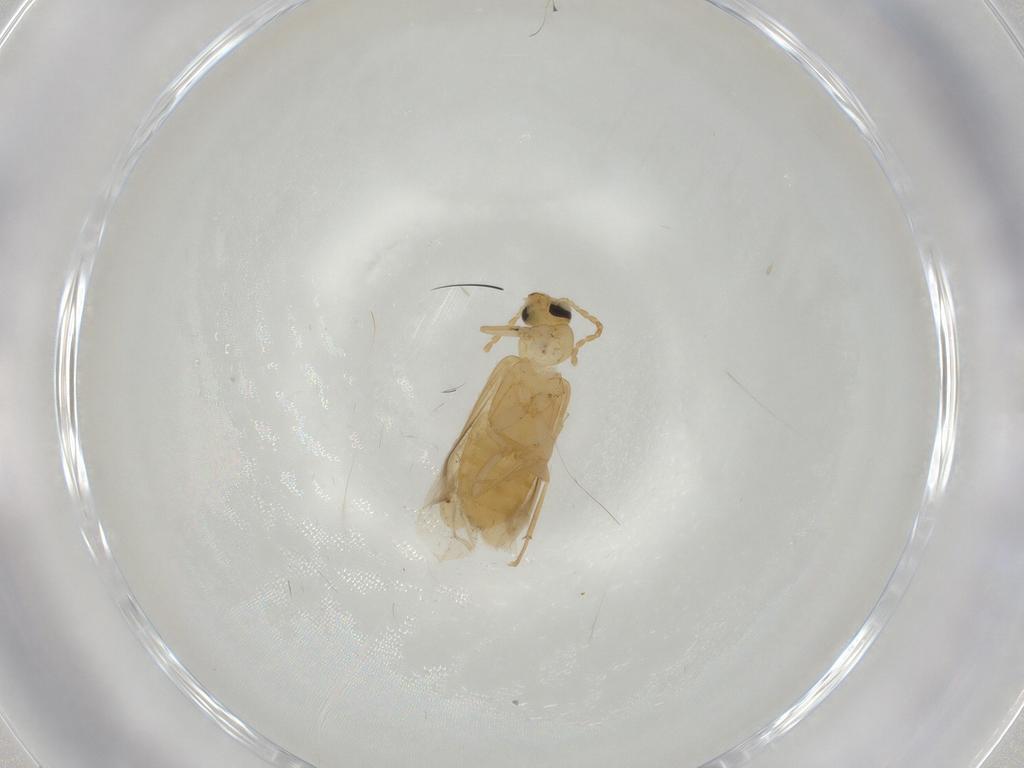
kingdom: Animalia
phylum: Arthropoda
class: Insecta
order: Coleoptera
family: Scraptiidae
